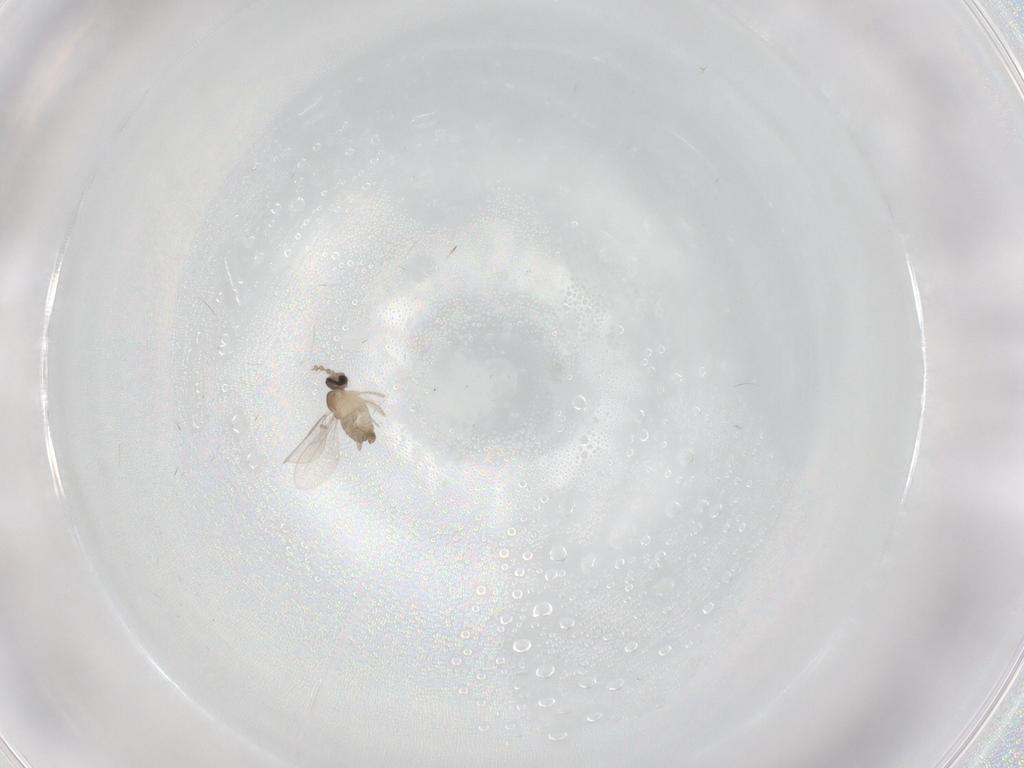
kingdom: Animalia
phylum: Arthropoda
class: Insecta
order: Diptera
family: Cecidomyiidae
